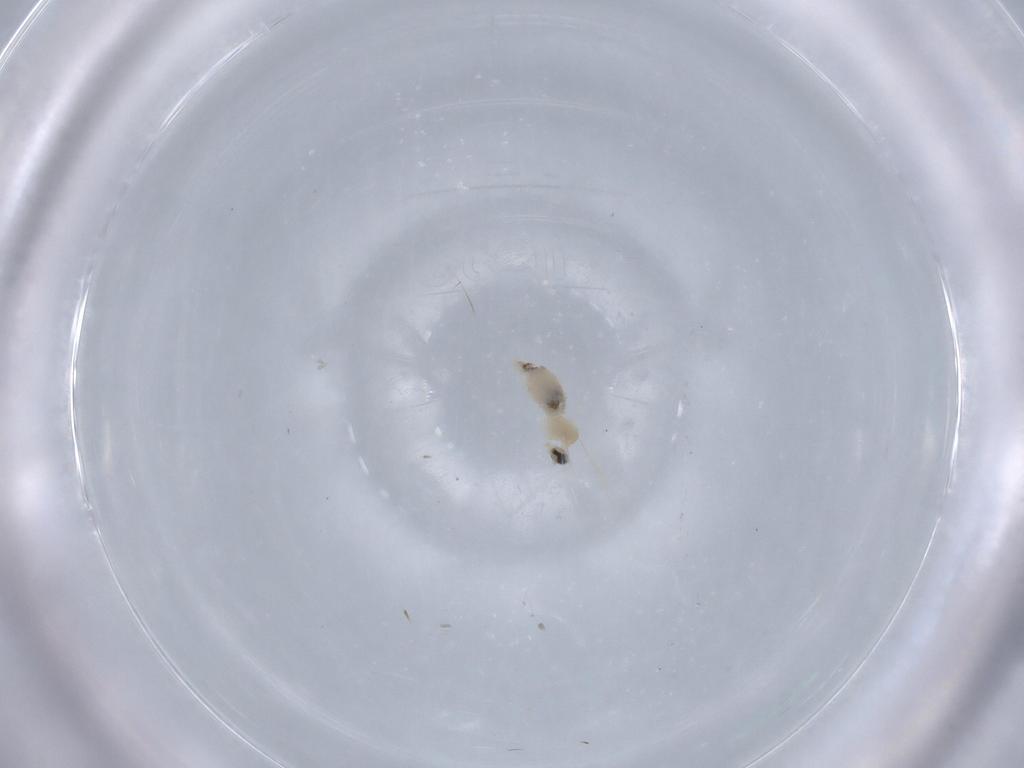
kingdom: Animalia
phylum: Arthropoda
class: Insecta
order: Diptera
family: Cecidomyiidae
